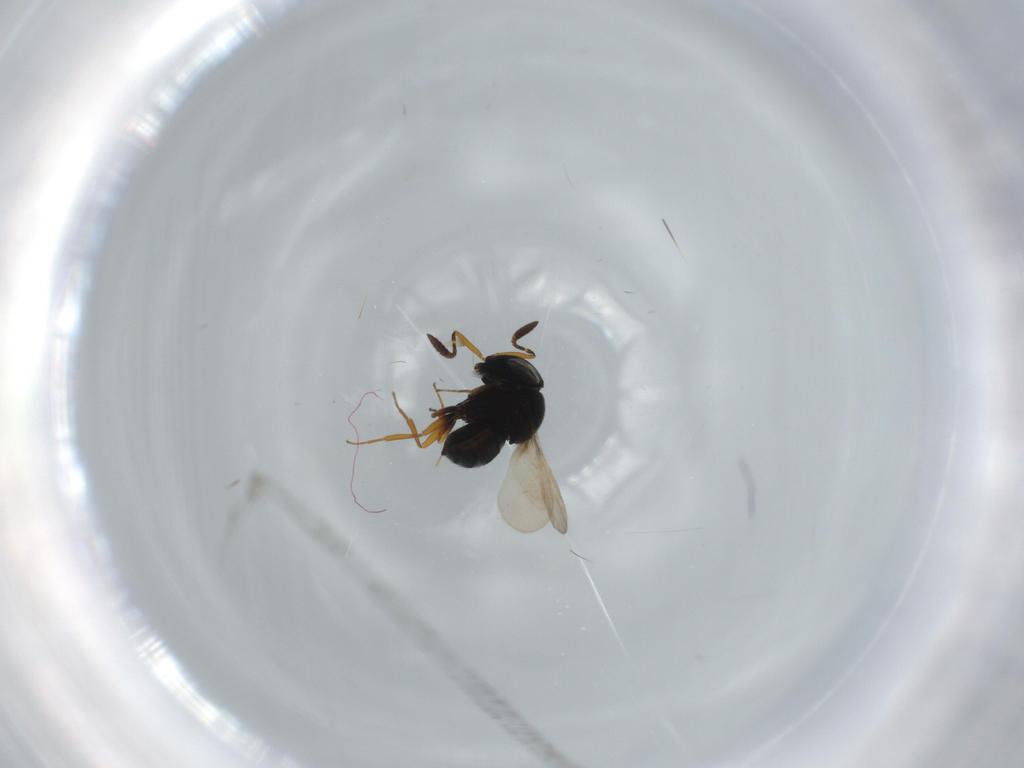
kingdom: Animalia
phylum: Arthropoda
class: Insecta
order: Hymenoptera
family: Scelionidae
